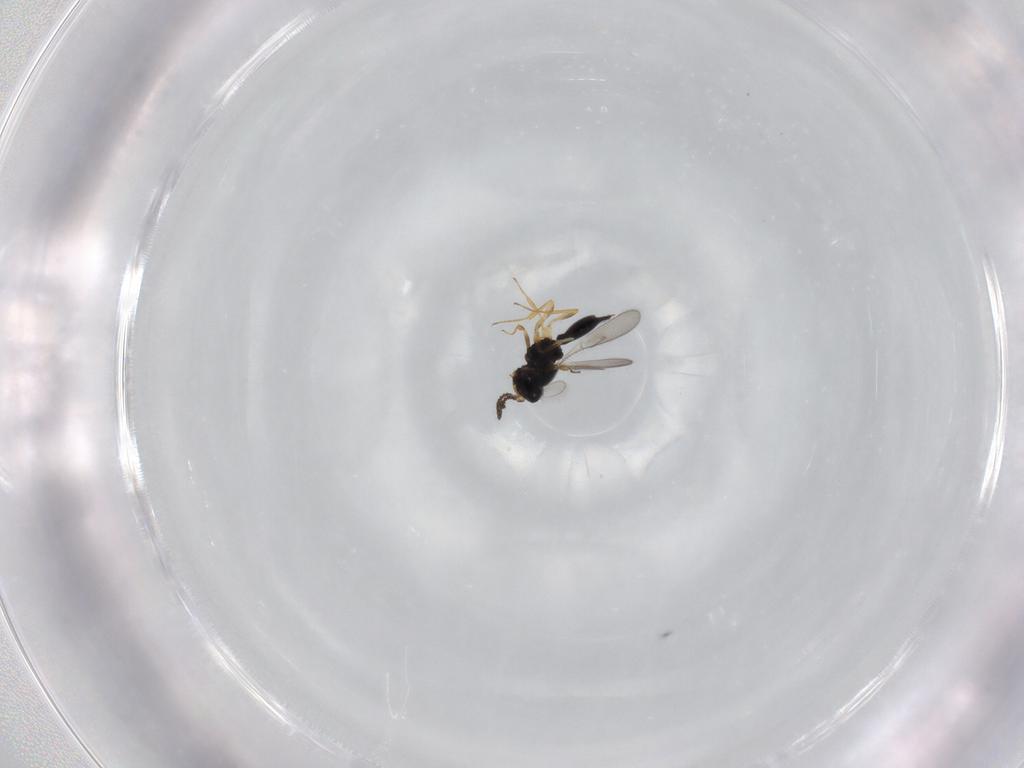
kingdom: Animalia
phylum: Arthropoda
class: Insecta
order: Hymenoptera
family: Scelionidae
